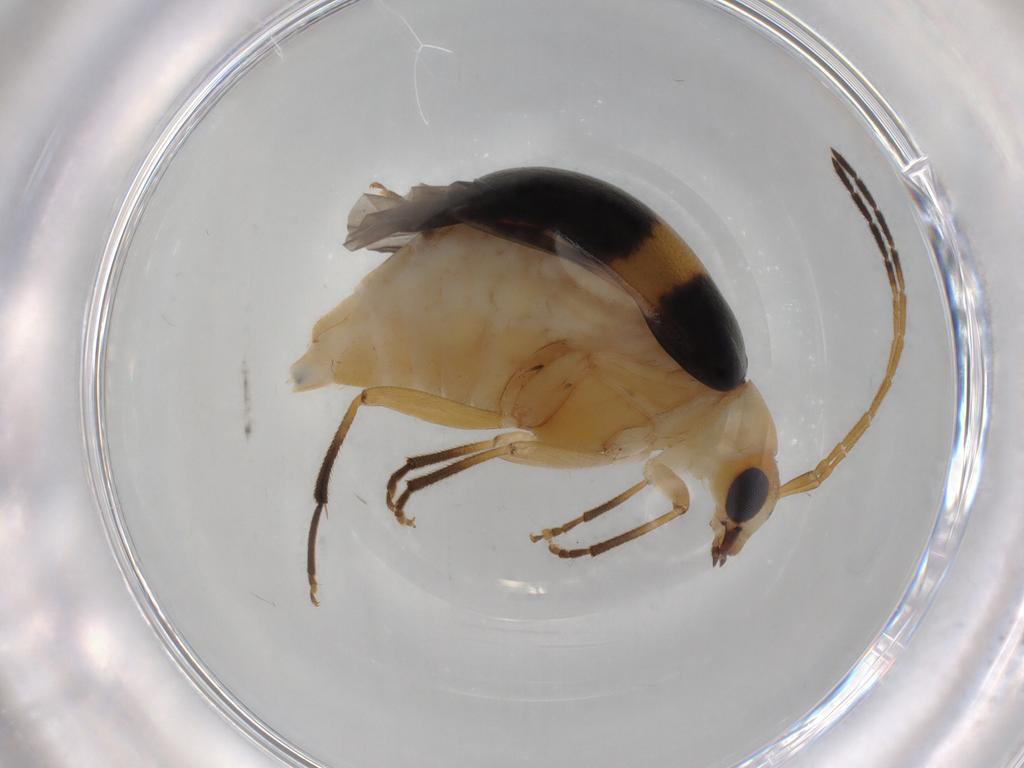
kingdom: Animalia
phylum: Arthropoda
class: Insecta
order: Coleoptera
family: Chrysomelidae
